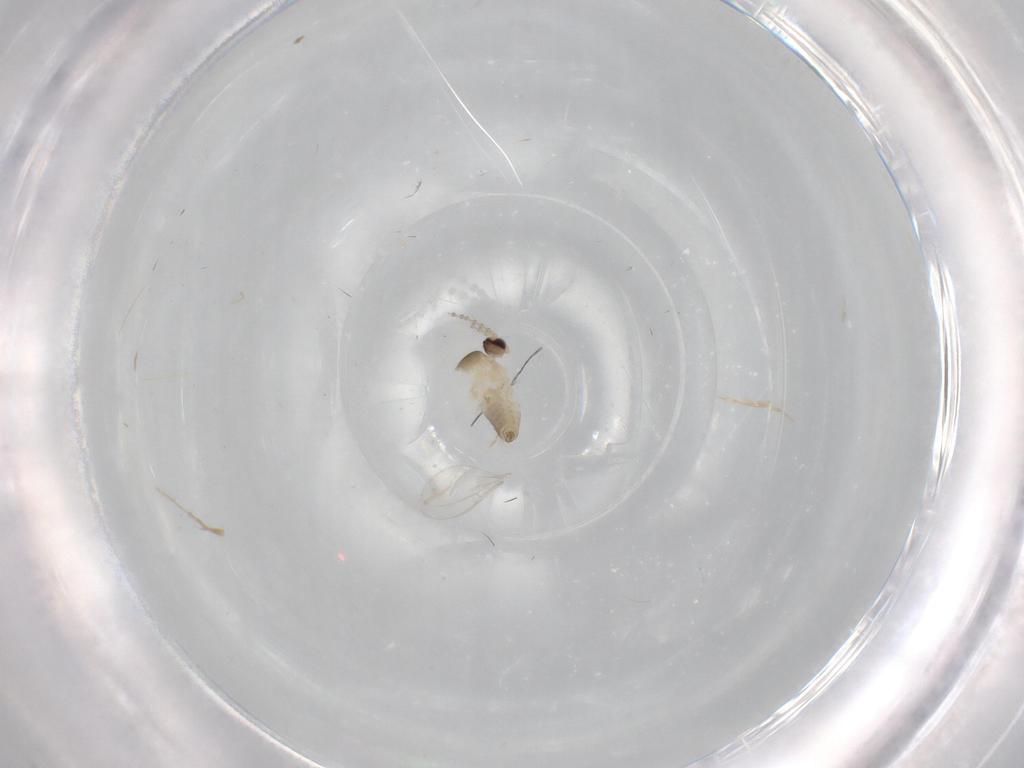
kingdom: Animalia
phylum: Arthropoda
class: Insecta
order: Diptera
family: Cecidomyiidae
